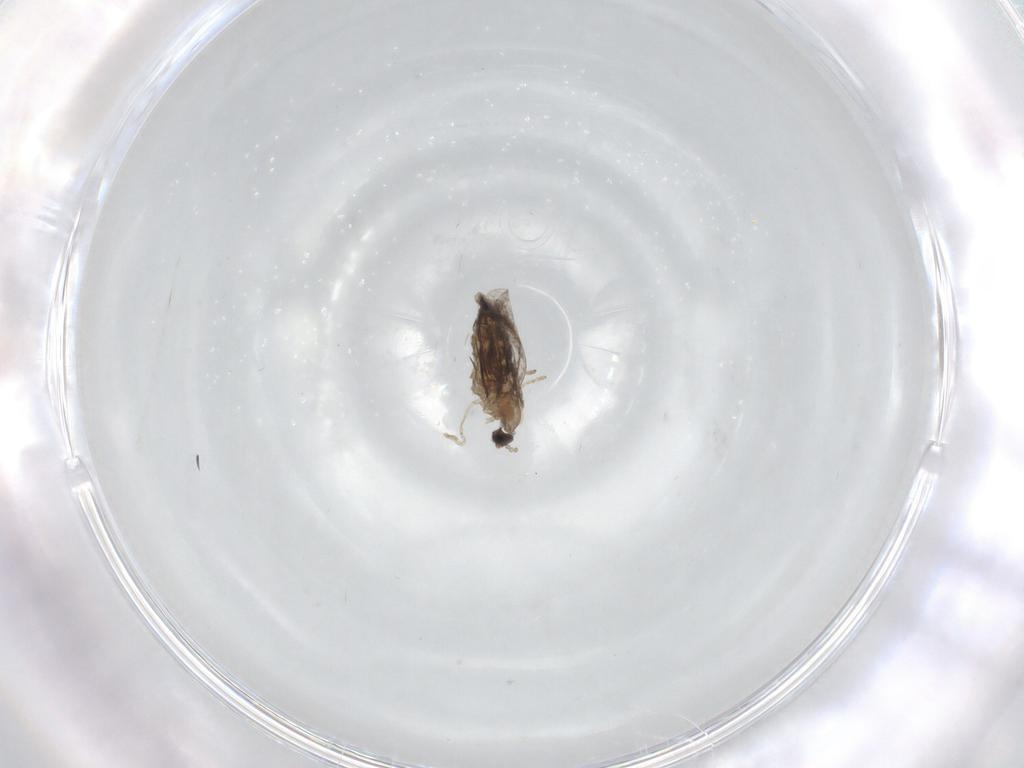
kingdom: Animalia
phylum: Arthropoda
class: Insecta
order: Diptera
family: Cecidomyiidae
